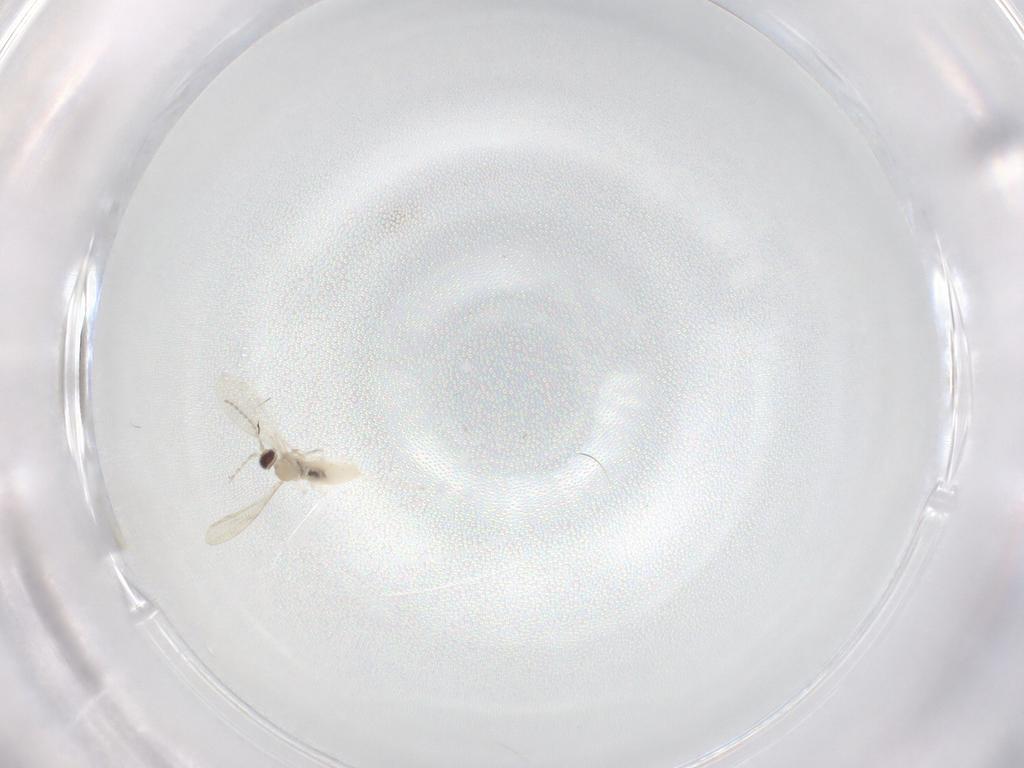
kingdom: Animalia
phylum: Arthropoda
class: Insecta
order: Diptera
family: Cecidomyiidae
